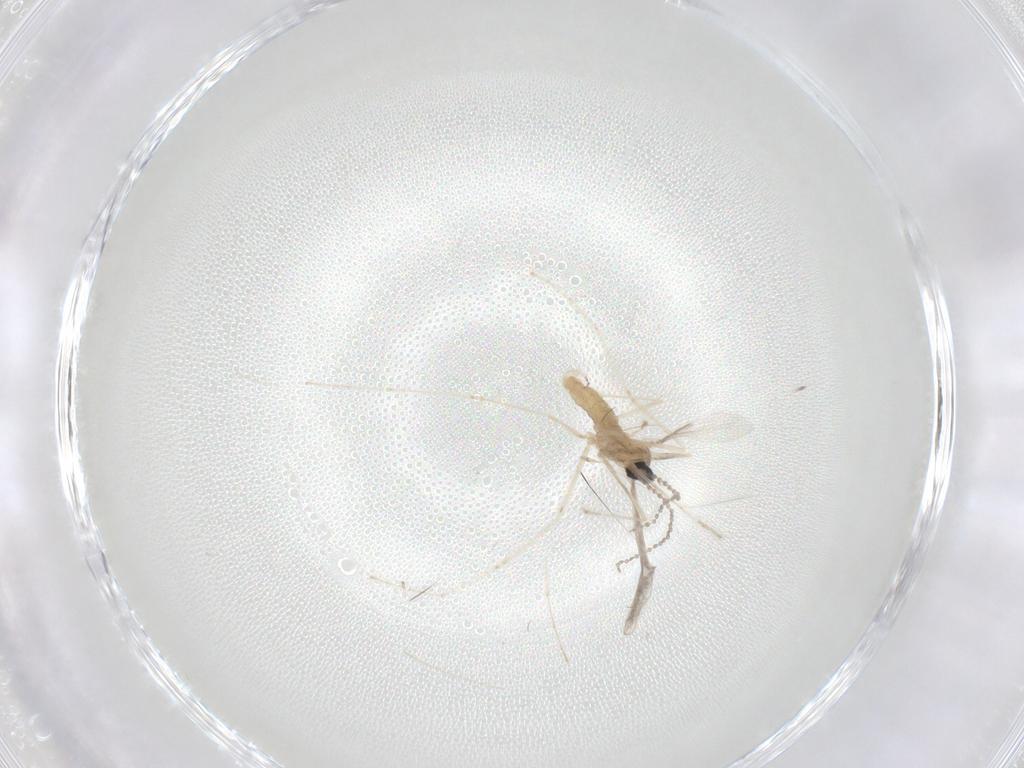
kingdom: Animalia
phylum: Arthropoda
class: Insecta
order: Diptera
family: Cecidomyiidae
